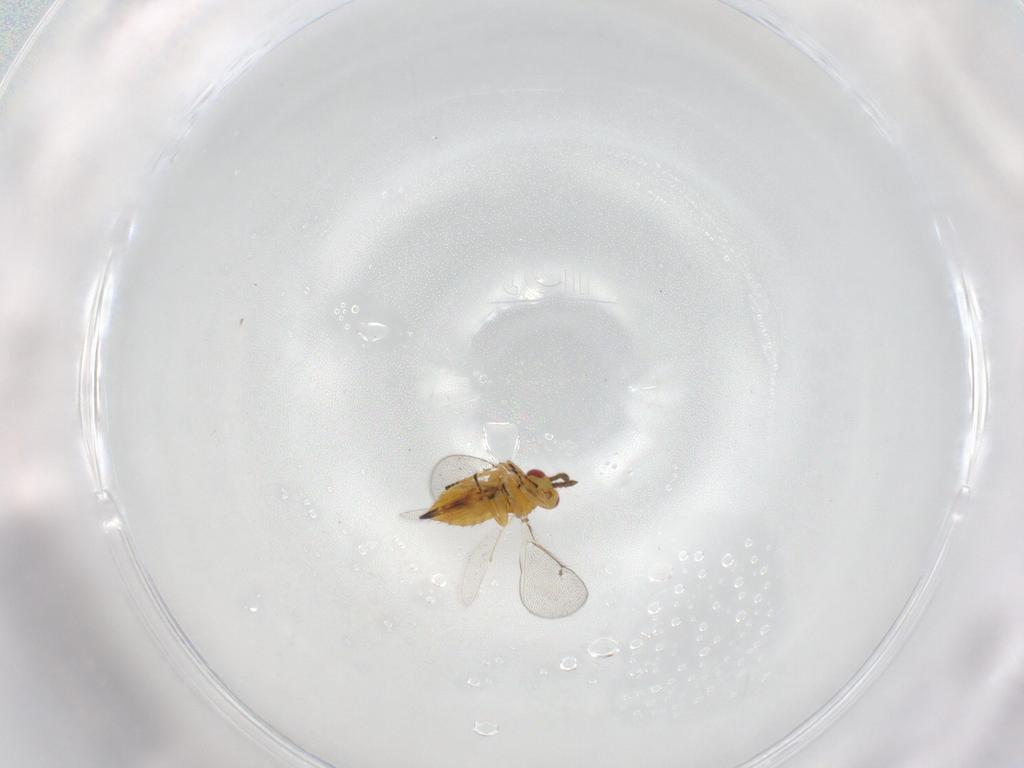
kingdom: Animalia
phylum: Arthropoda
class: Insecta
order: Hymenoptera
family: Eulophidae
